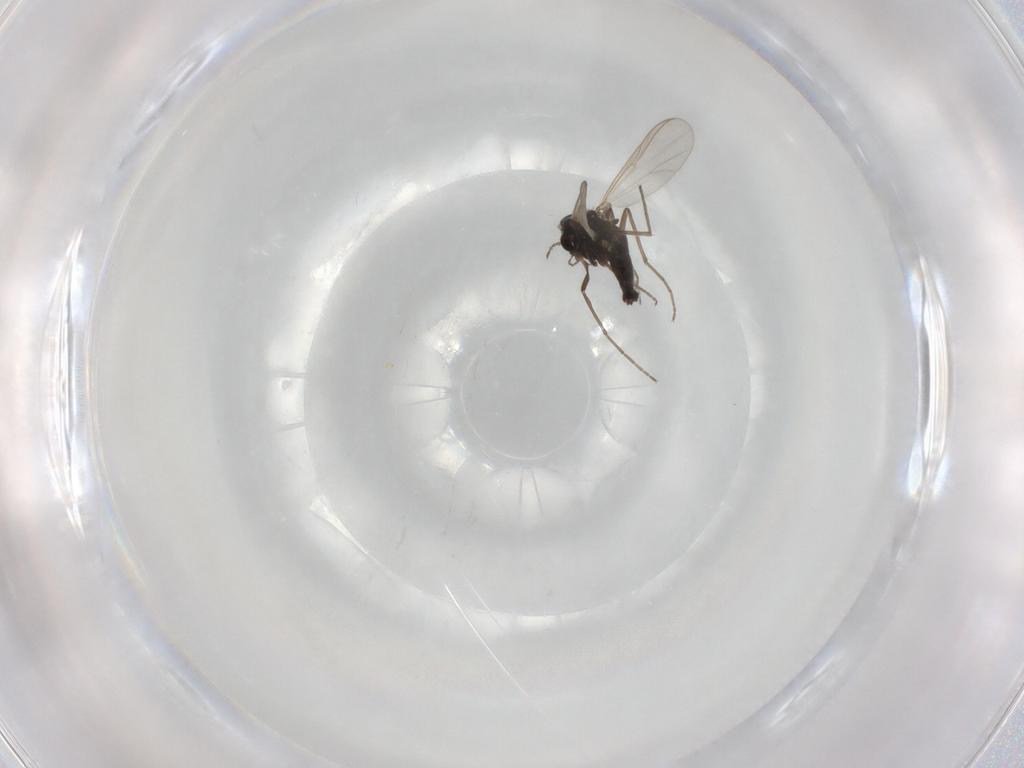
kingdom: Animalia
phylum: Arthropoda
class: Insecta
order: Diptera
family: Chironomidae
